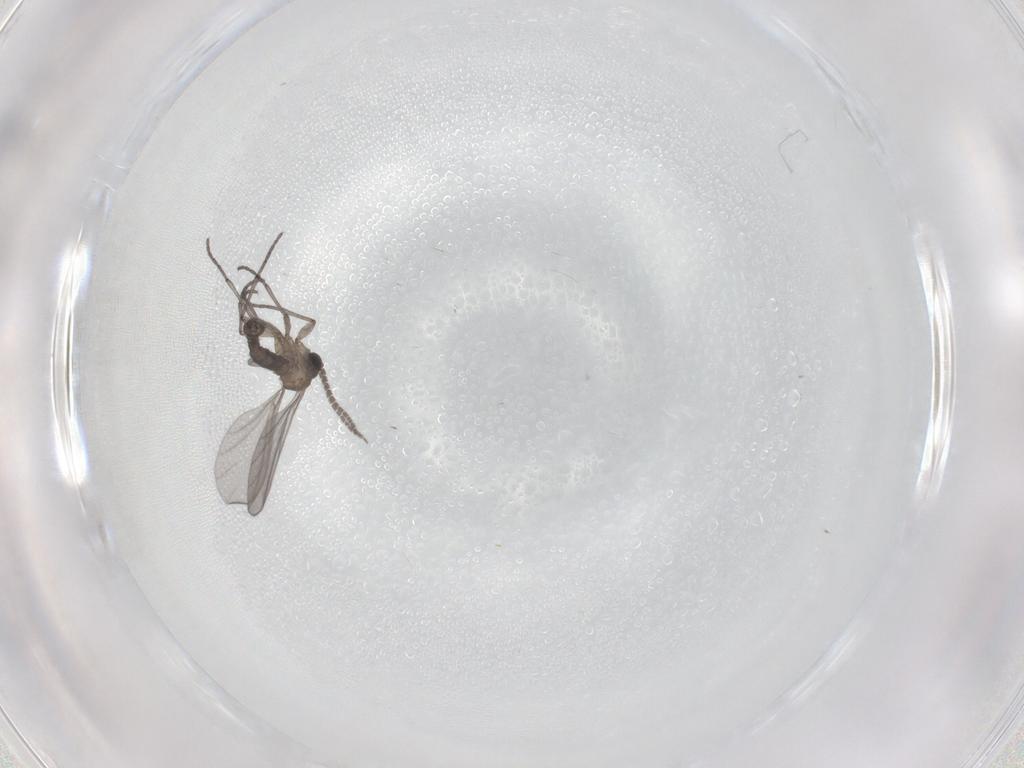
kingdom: Animalia
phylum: Arthropoda
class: Insecta
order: Diptera
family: Sciaridae
